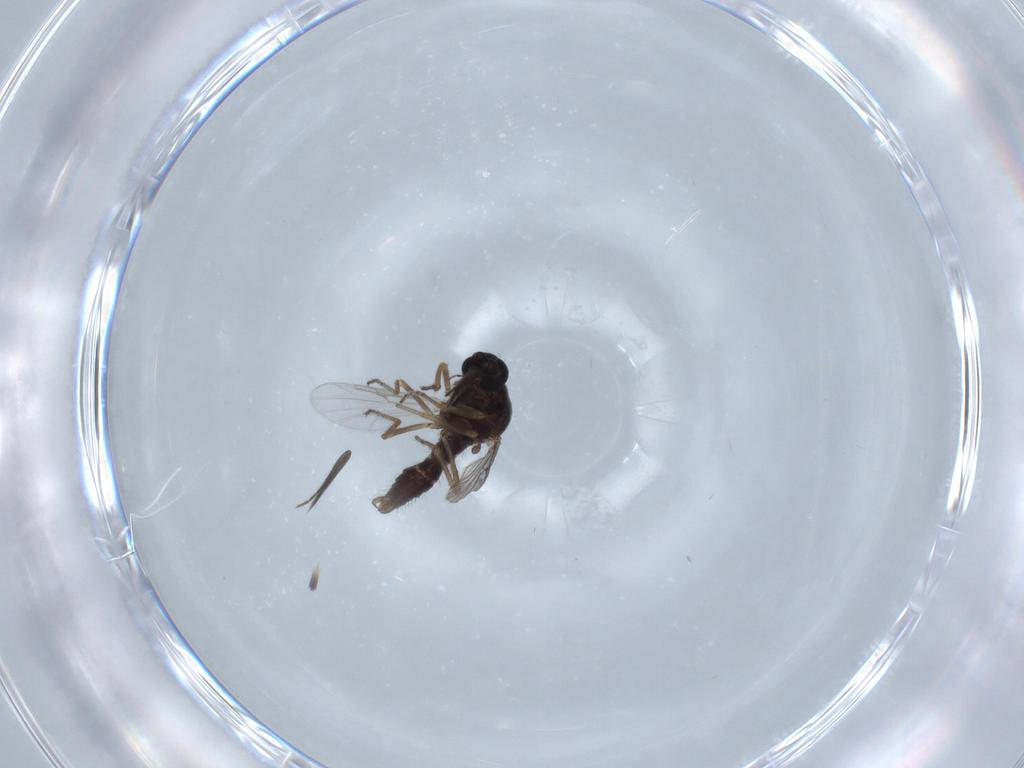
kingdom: Animalia
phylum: Arthropoda
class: Insecta
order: Diptera
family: Ceratopogonidae
